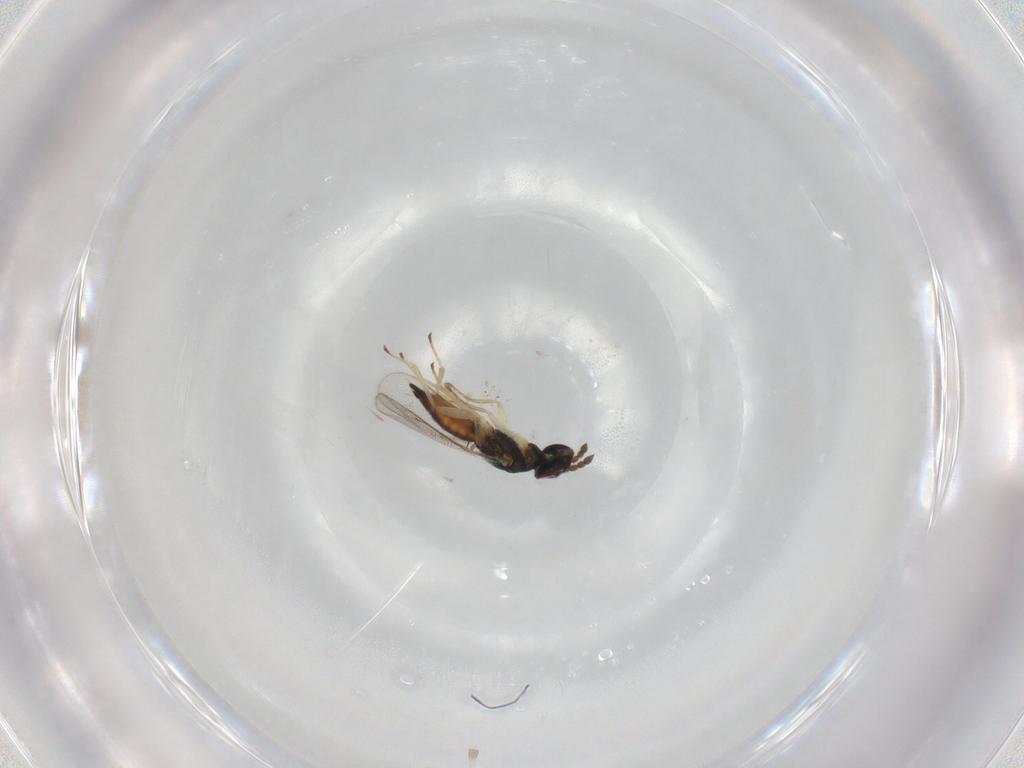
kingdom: Animalia
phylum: Arthropoda
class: Insecta
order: Hymenoptera
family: Eulophidae
